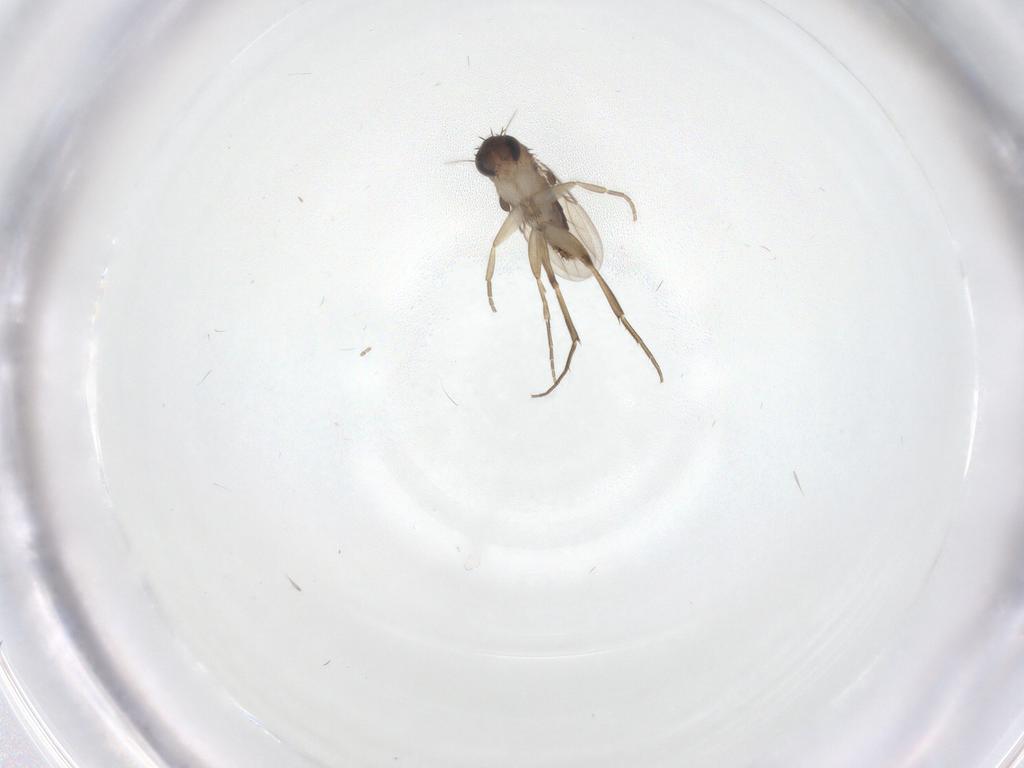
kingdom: Animalia
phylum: Arthropoda
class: Insecta
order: Diptera
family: Phoridae
